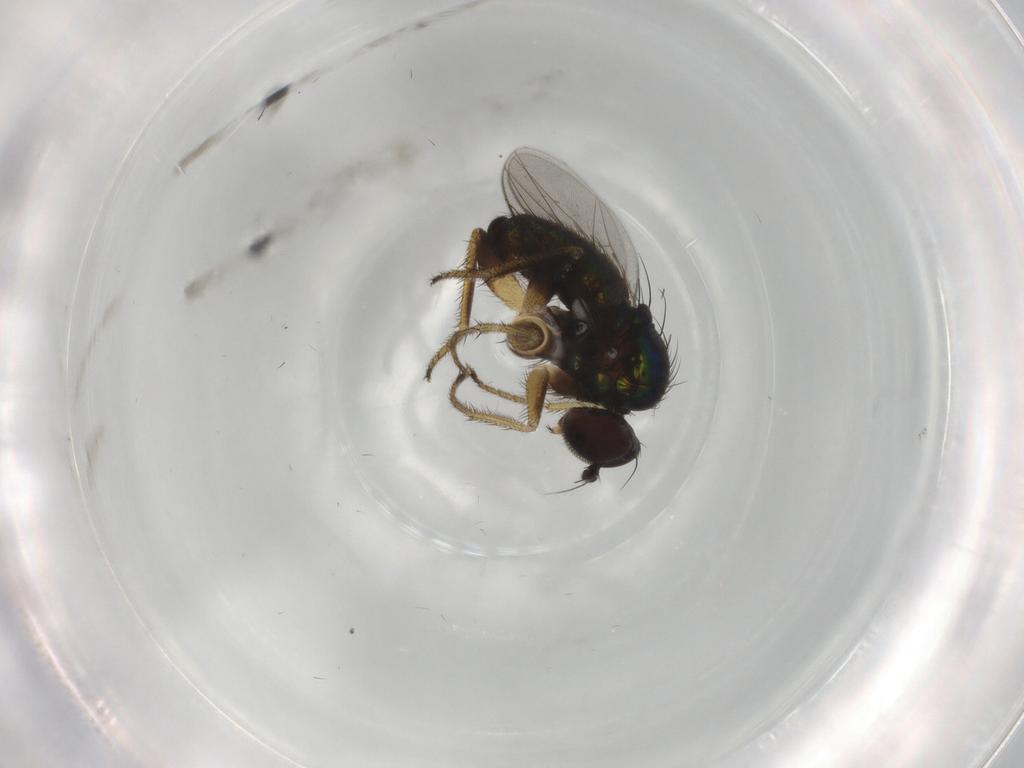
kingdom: Animalia
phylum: Arthropoda
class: Insecta
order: Diptera
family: Dolichopodidae
